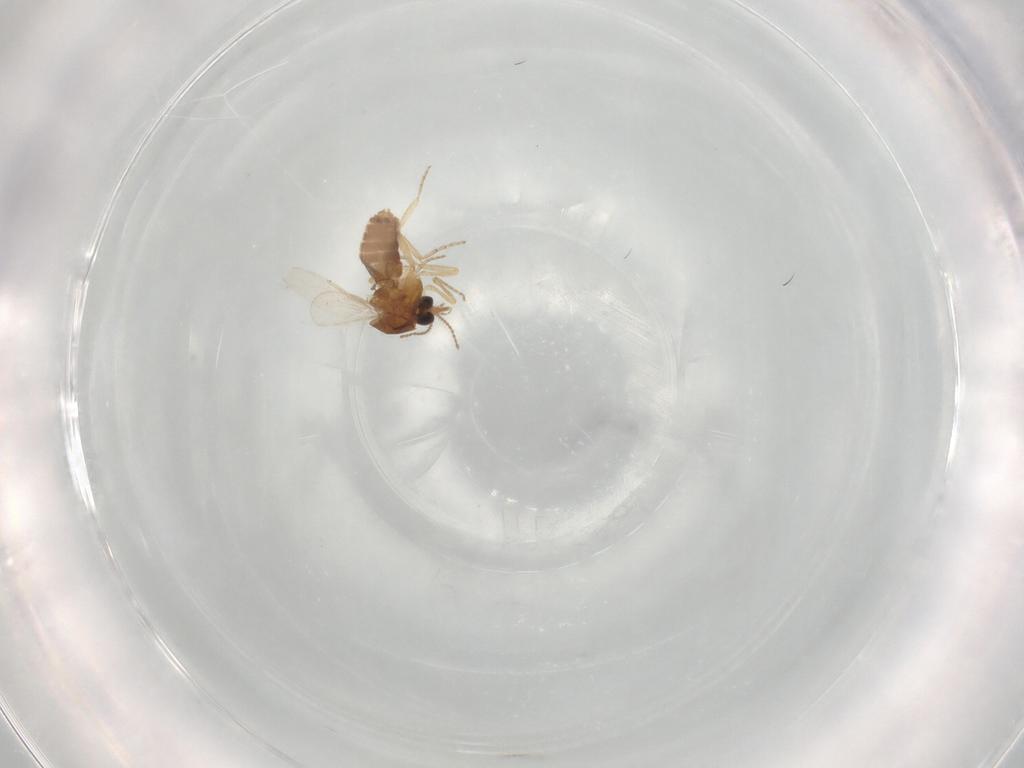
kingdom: Animalia
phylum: Arthropoda
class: Insecta
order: Diptera
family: Ceratopogonidae
